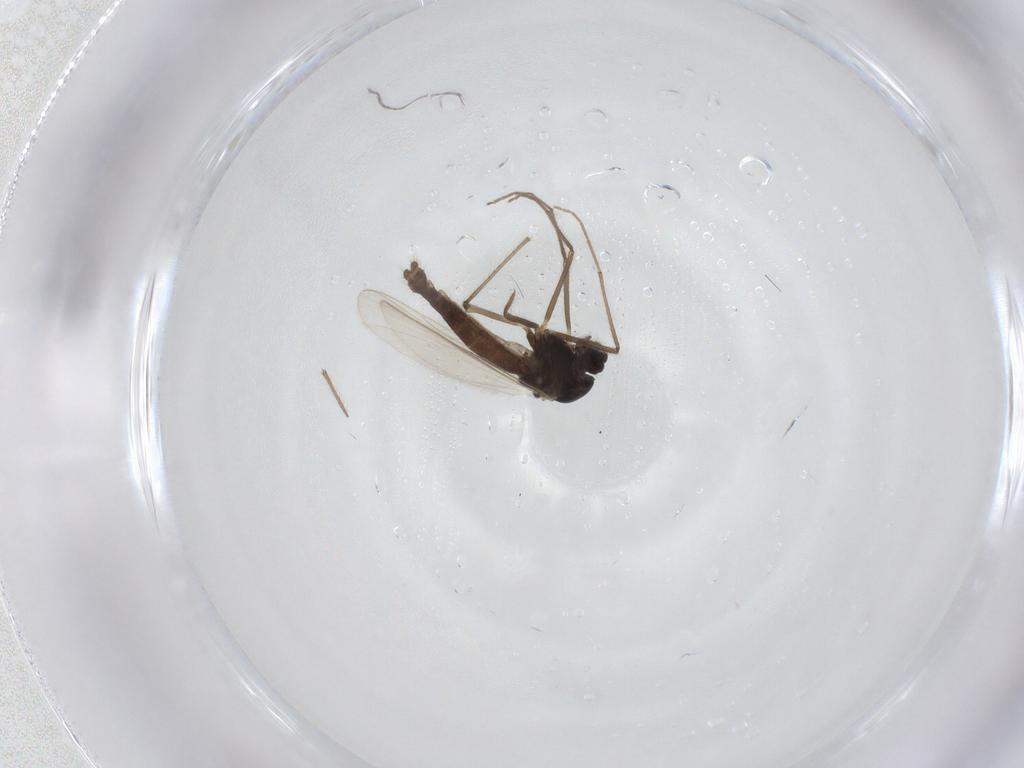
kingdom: Animalia
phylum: Arthropoda
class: Insecta
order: Diptera
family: Chironomidae
